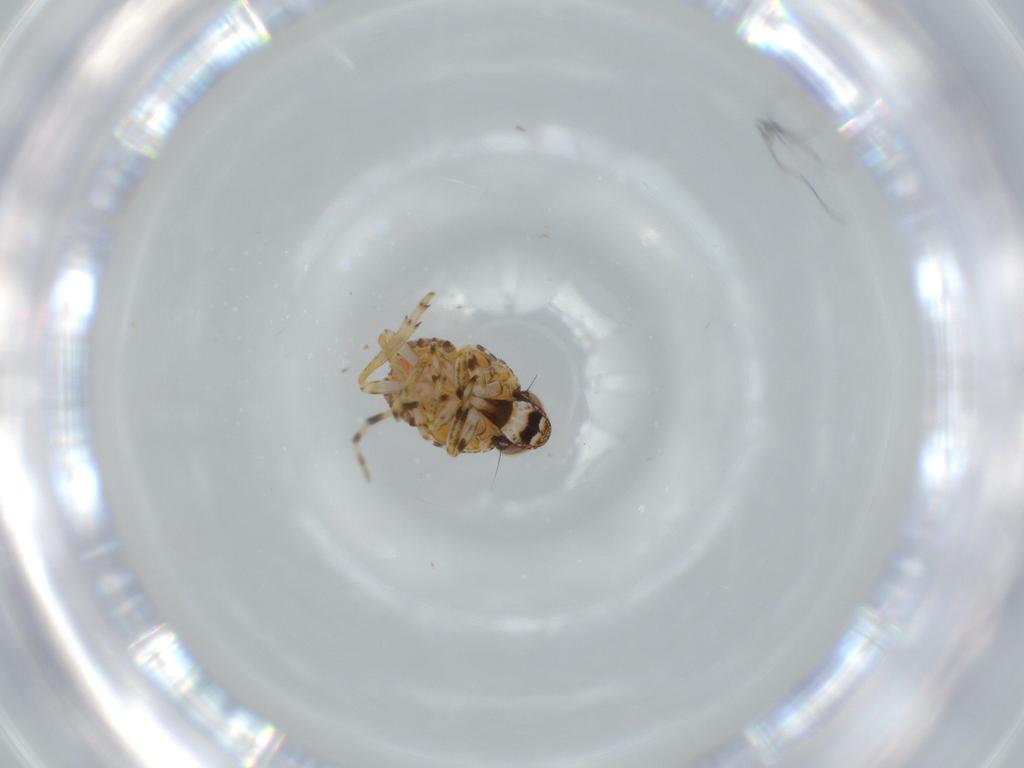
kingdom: Animalia
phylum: Arthropoda
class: Insecta
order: Hemiptera
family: Issidae
